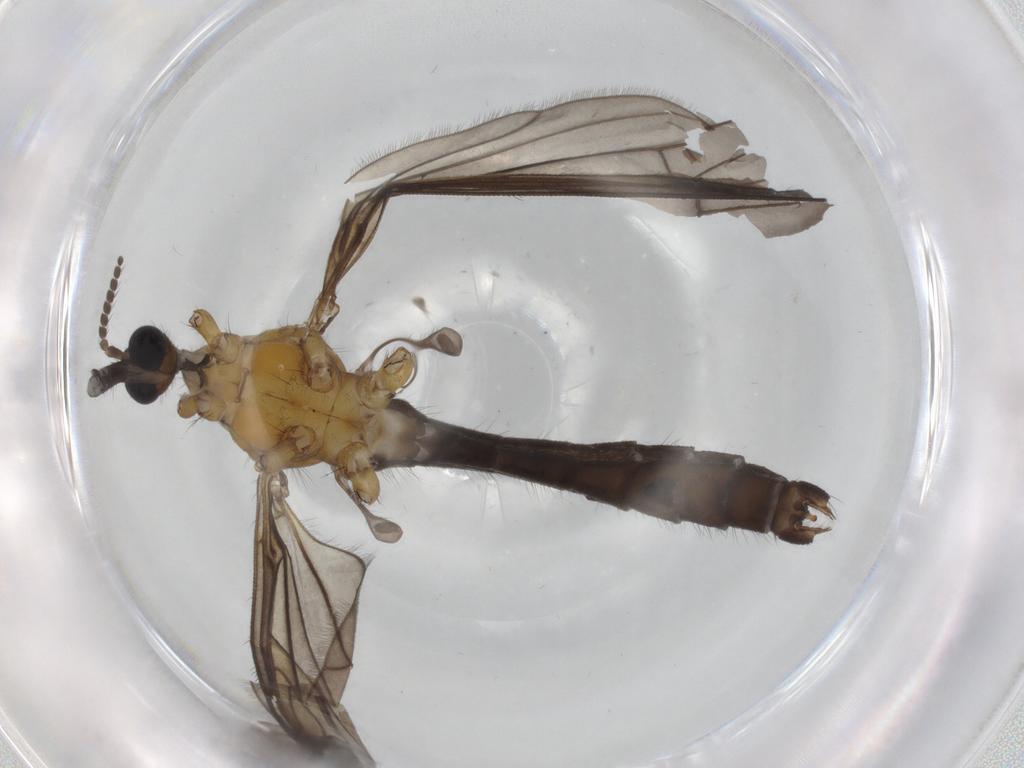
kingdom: Animalia
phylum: Arthropoda
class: Insecta
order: Diptera
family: Limoniidae
